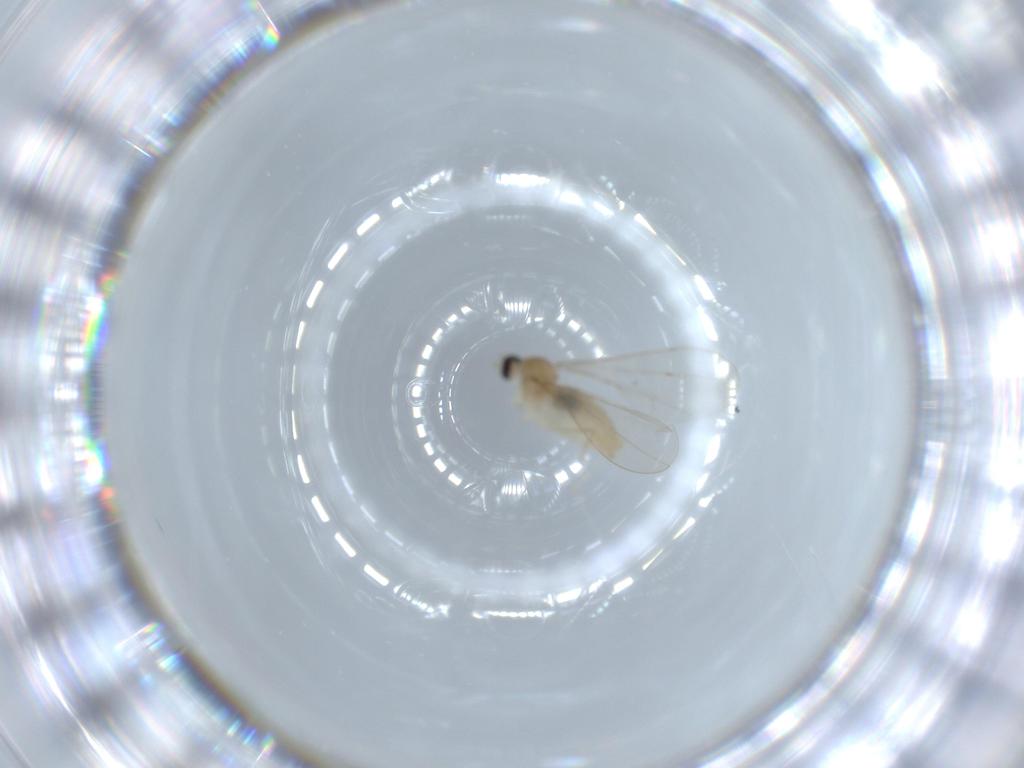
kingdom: Animalia
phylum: Arthropoda
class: Insecta
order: Diptera
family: Cecidomyiidae
